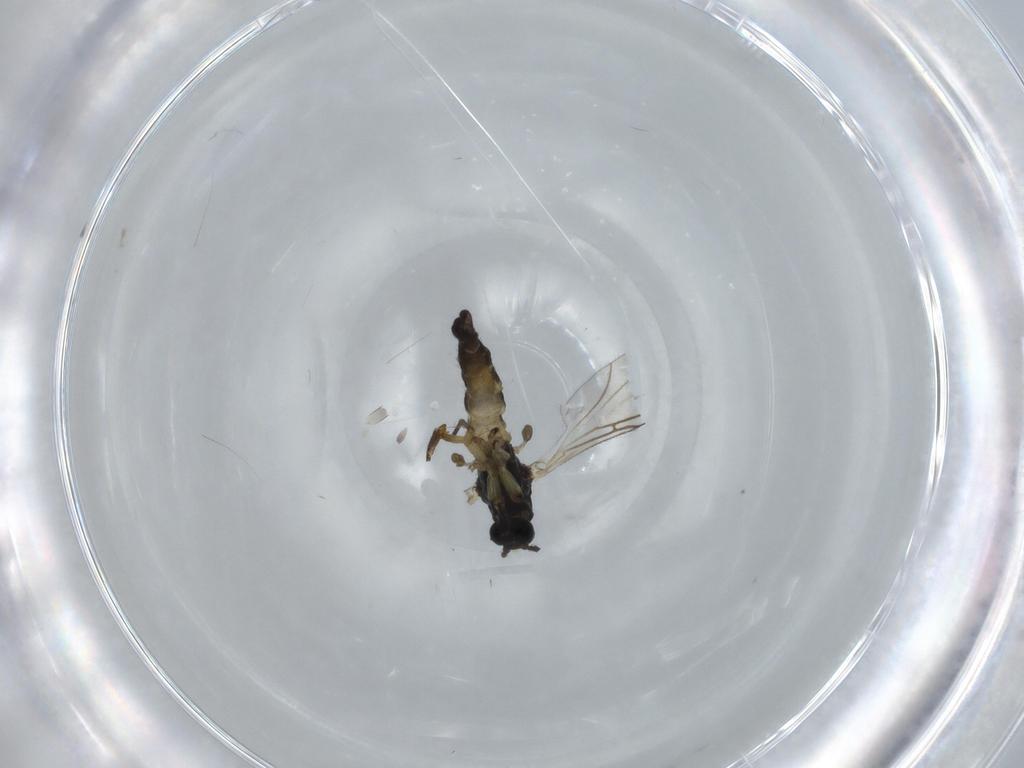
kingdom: Animalia
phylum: Arthropoda
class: Insecta
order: Diptera
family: Sciaridae
